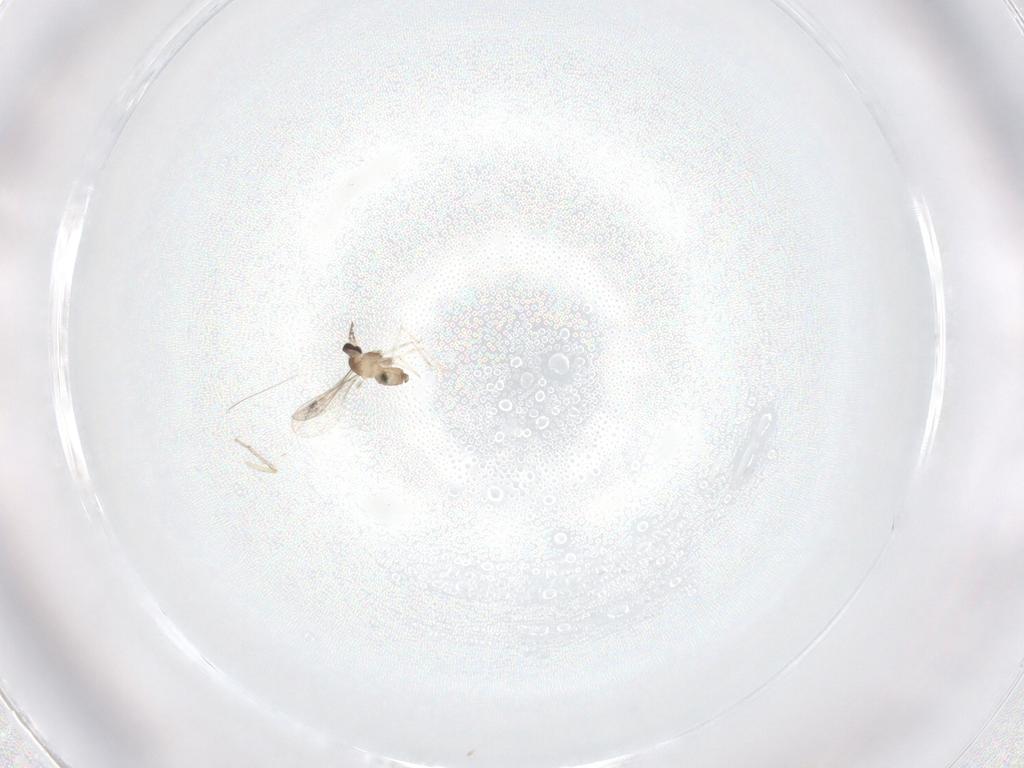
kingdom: Animalia
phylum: Arthropoda
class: Insecta
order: Diptera
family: Cecidomyiidae
